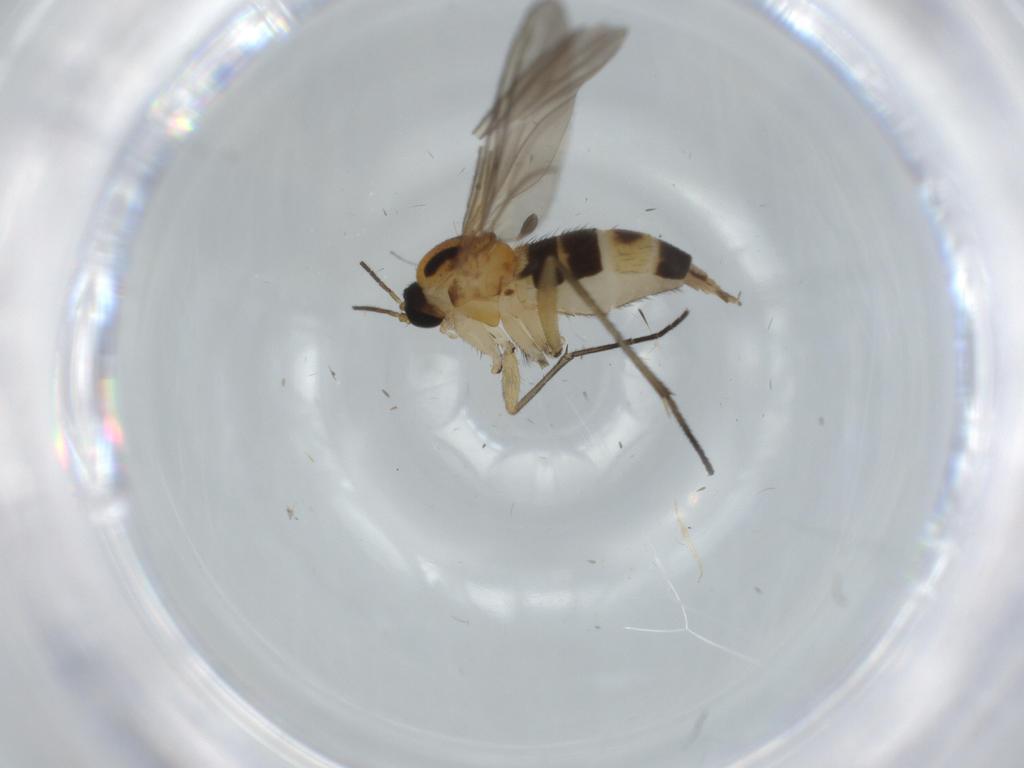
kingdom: Animalia
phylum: Arthropoda
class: Insecta
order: Diptera
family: Sciaridae
